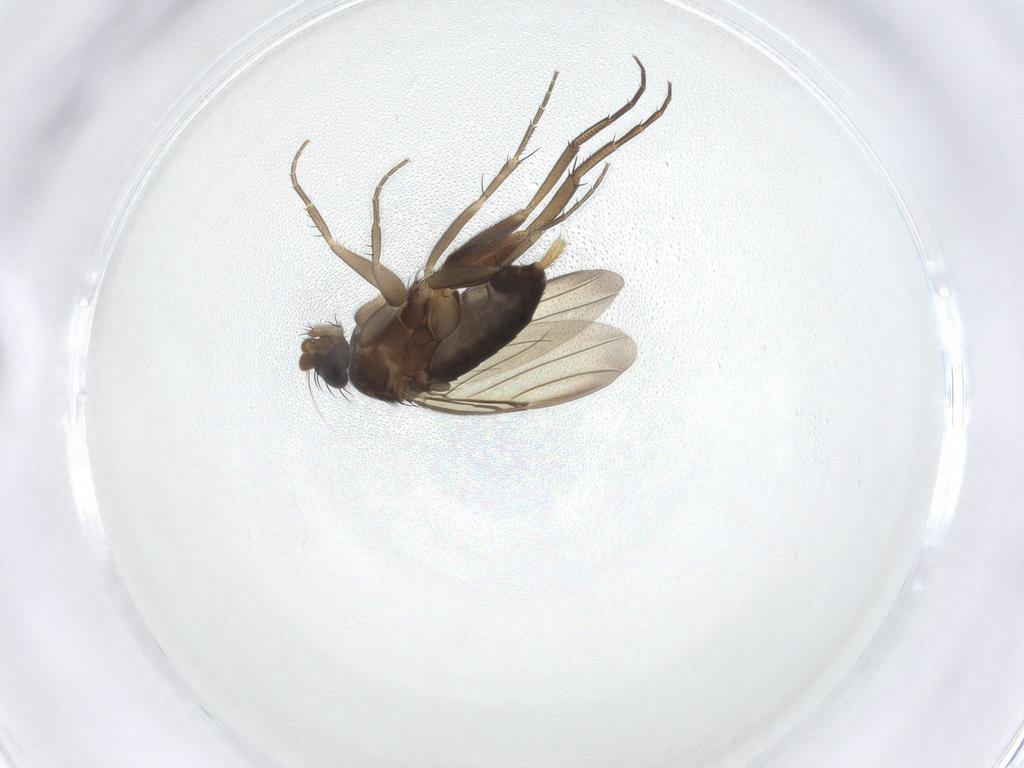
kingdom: Animalia
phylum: Arthropoda
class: Insecta
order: Diptera
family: Phoridae
